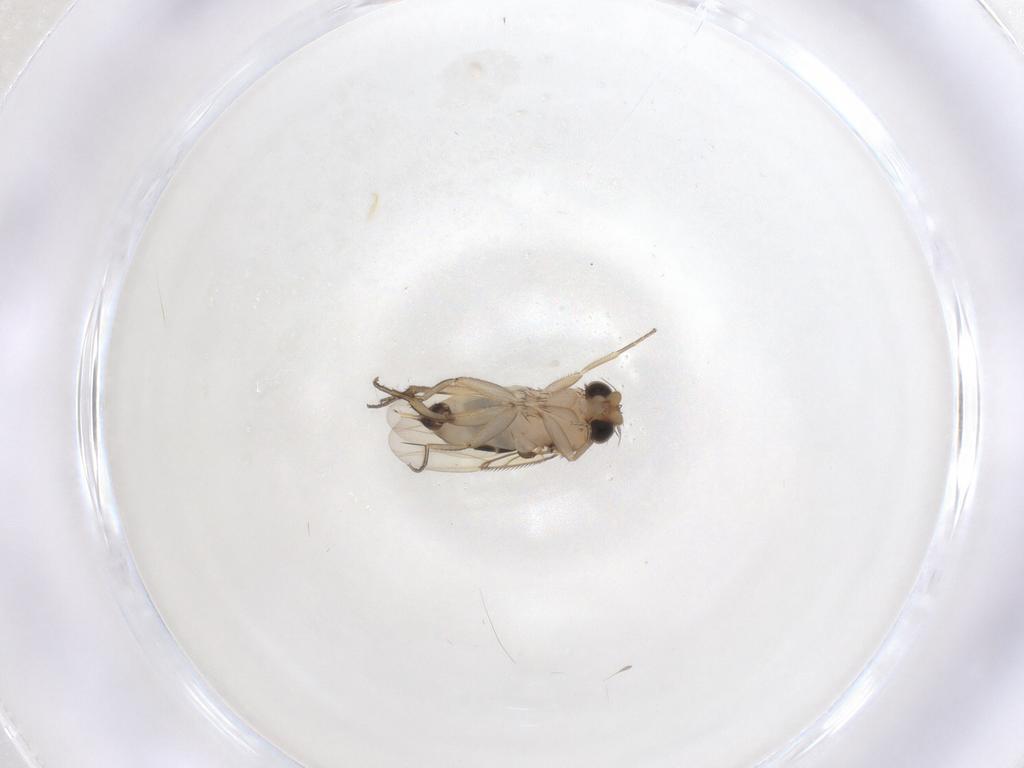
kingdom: Animalia
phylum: Arthropoda
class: Insecta
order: Diptera
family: Phoridae
